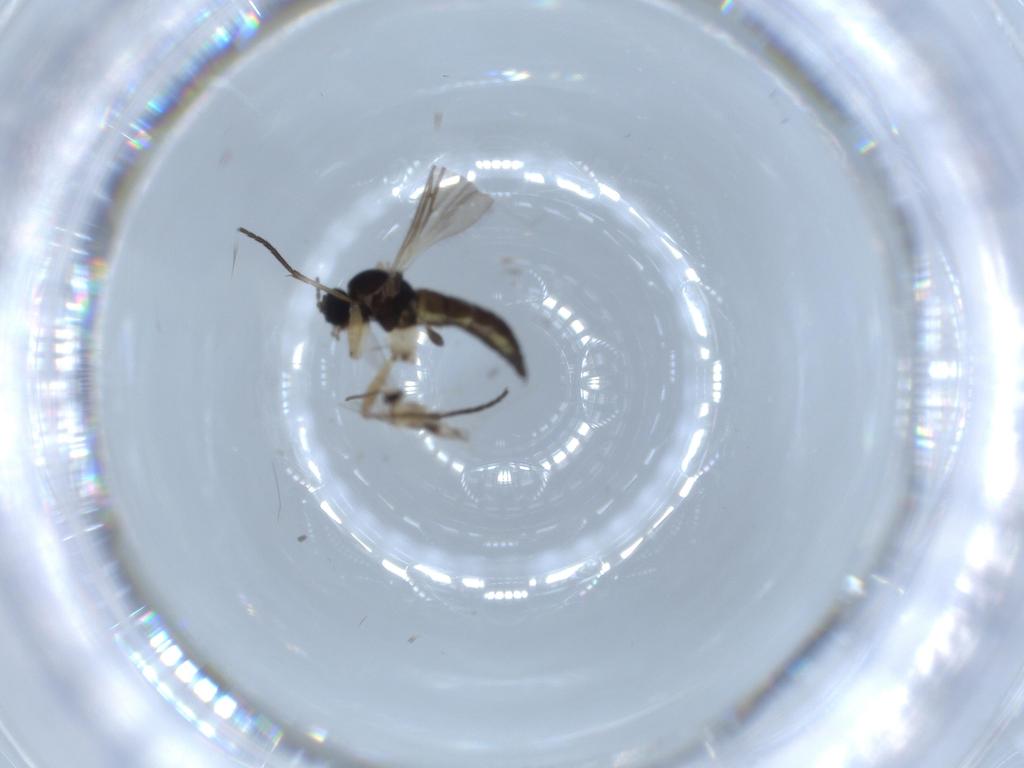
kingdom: Animalia
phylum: Arthropoda
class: Insecta
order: Diptera
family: Sciaridae
